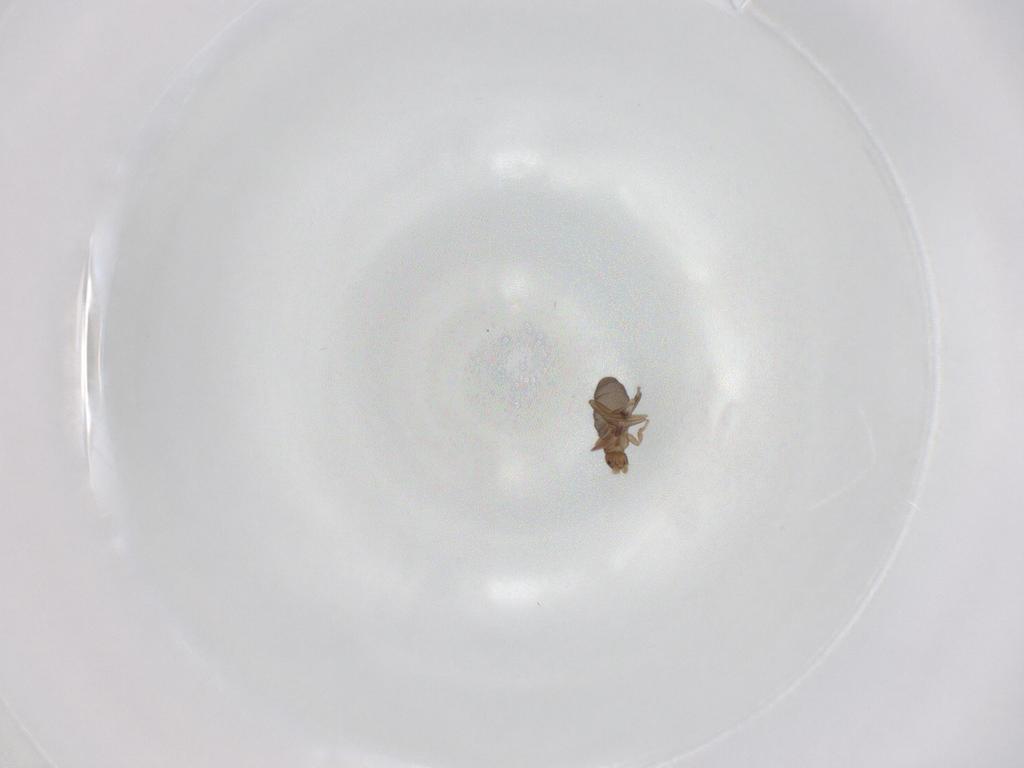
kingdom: Animalia
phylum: Arthropoda
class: Insecta
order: Diptera
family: Phoridae
